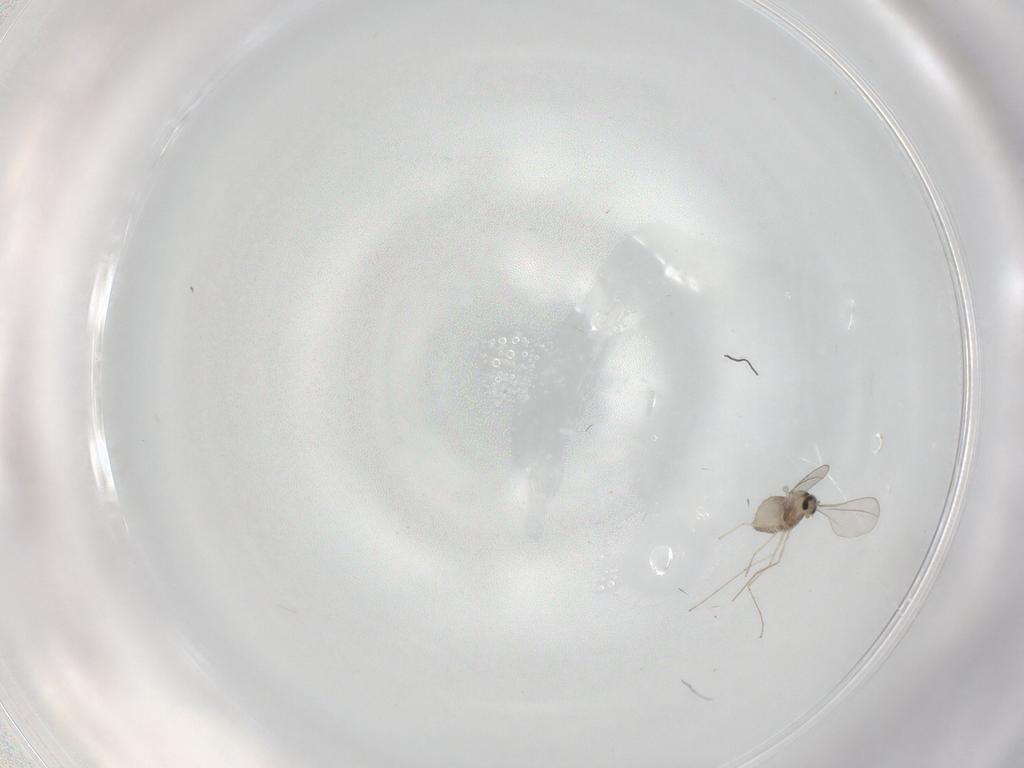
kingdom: Animalia
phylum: Arthropoda
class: Insecta
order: Diptera
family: Cecidomyiidae
